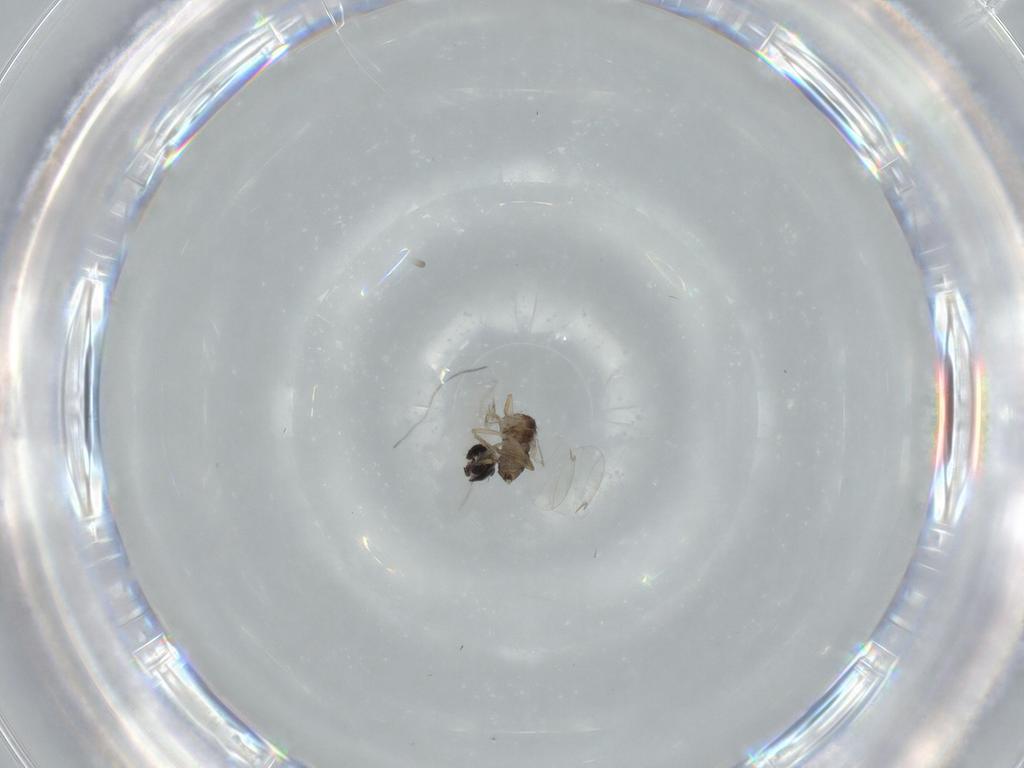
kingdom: Animalia
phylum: Arthropoda
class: Insecta
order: Diptera
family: Phoridae
